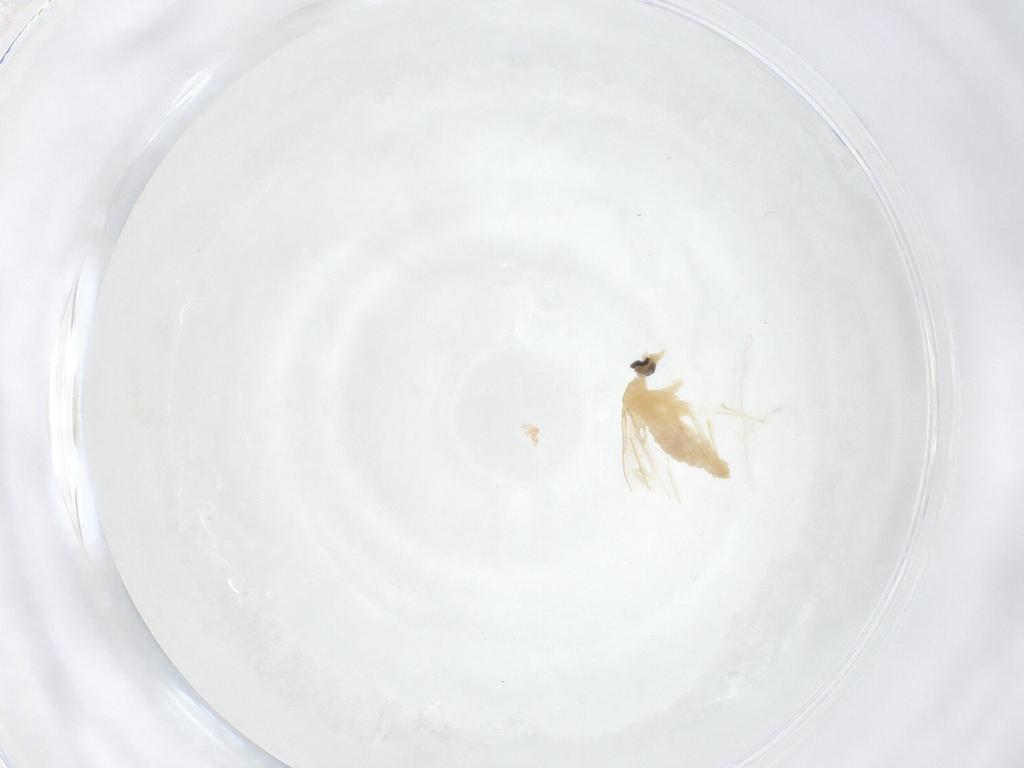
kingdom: Animalia
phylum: Arthropoda
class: Insecta
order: Diptera
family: Cecidomyiidae
